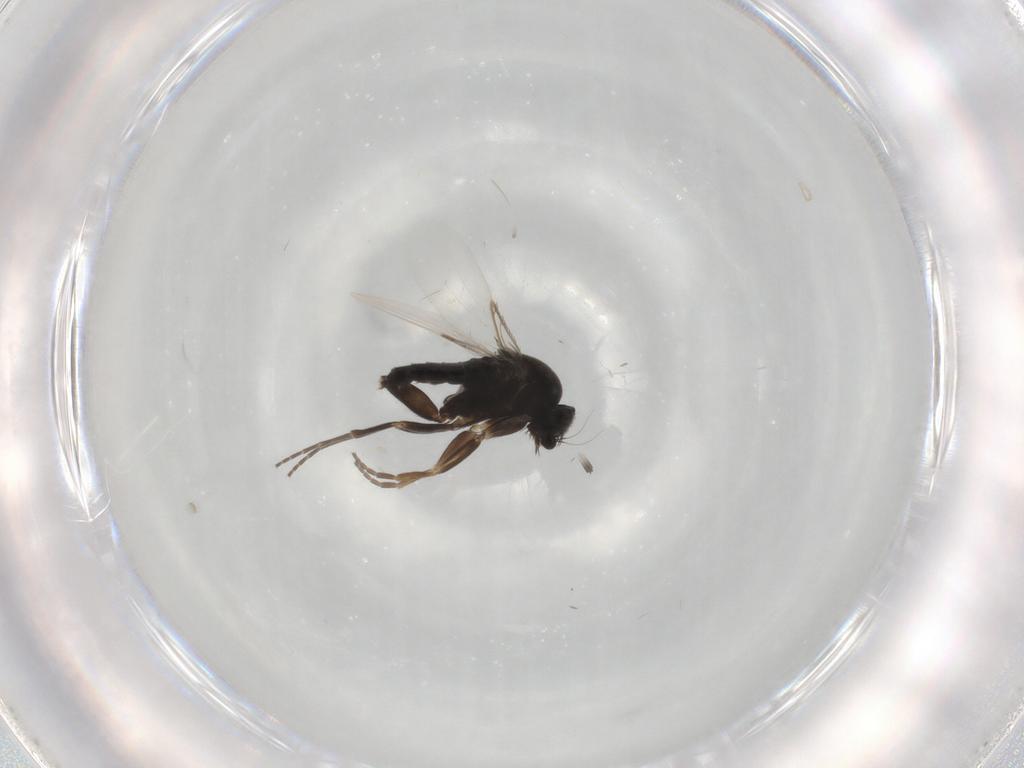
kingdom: Animalia
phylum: Arthropoda
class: Insecta
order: Diptera
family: Phoridae
